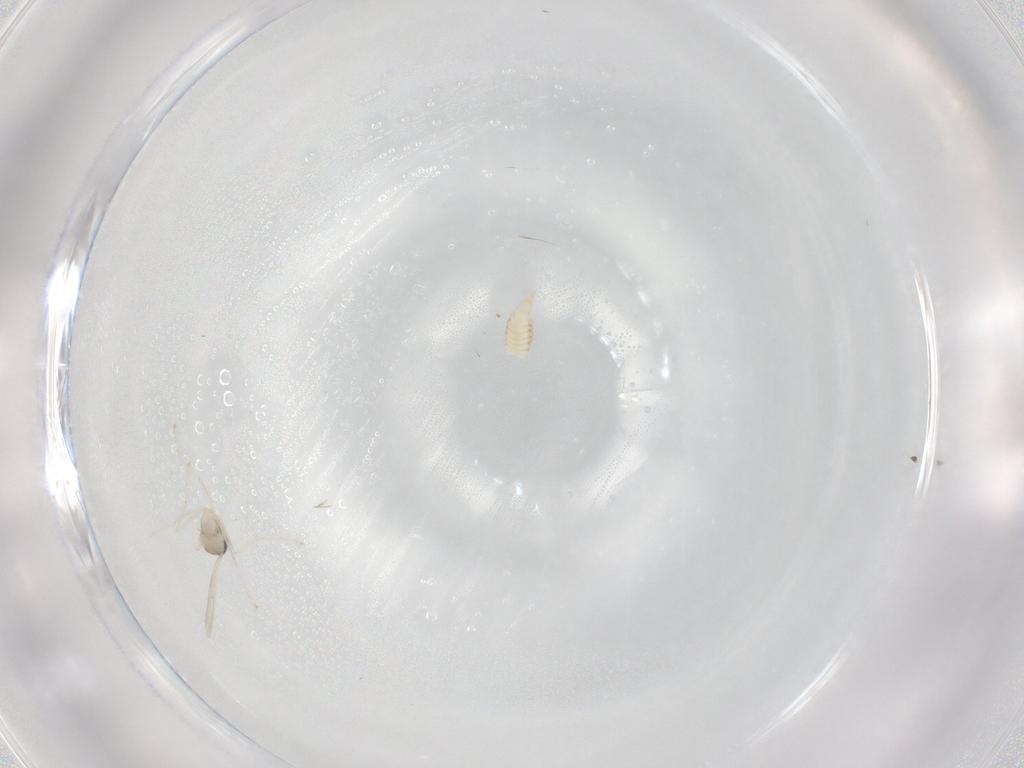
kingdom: Animalia
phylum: Arthropoda
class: Insecta
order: Diptera
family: Cecidomyiidae
